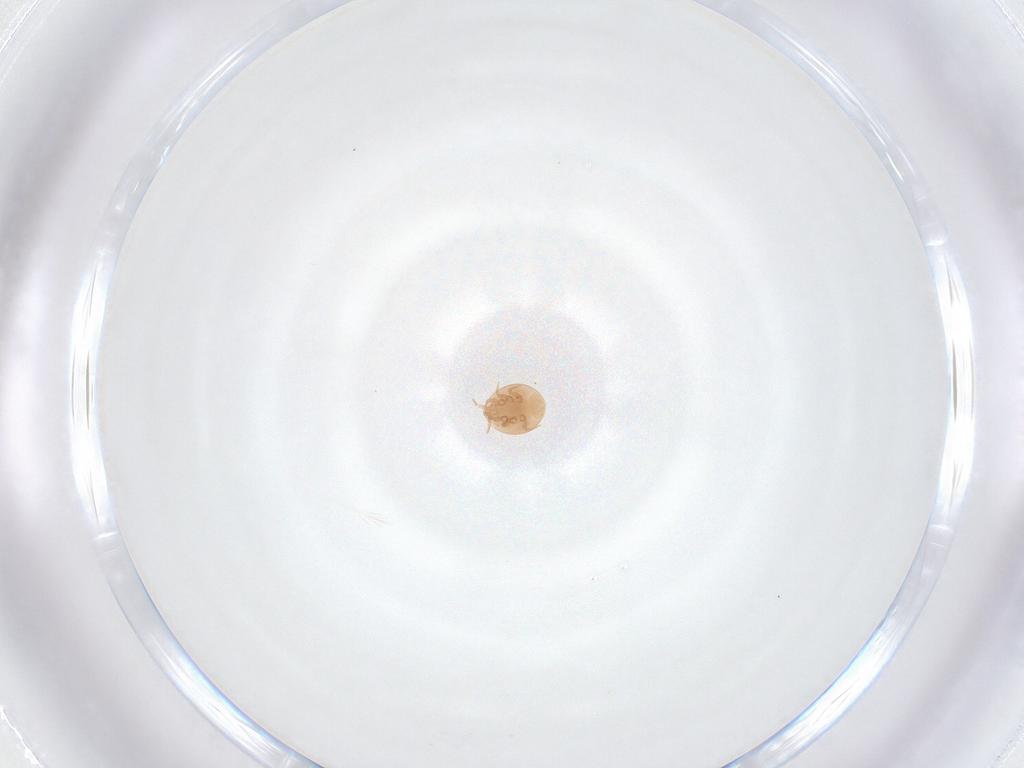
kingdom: Animalia
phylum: Arthropoda
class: Arachnida
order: Mesostigmata
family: Trematuridae
